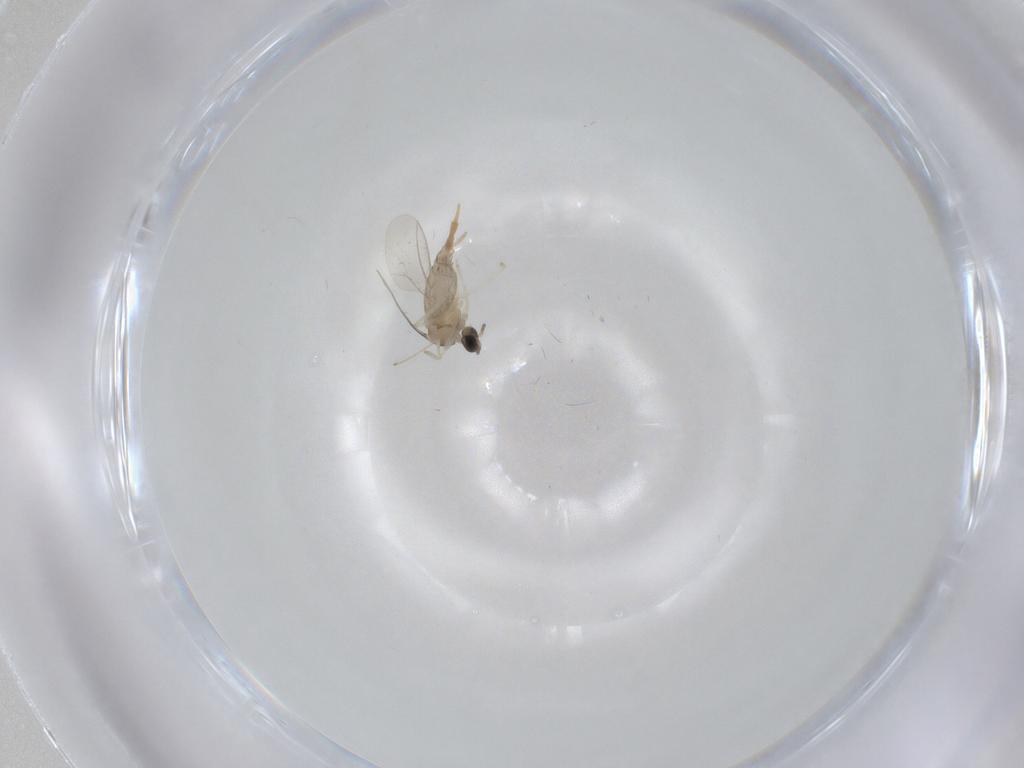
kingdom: Animalia
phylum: Arthropoda
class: Insecta
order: Diptera
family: Cecidomyiidae
